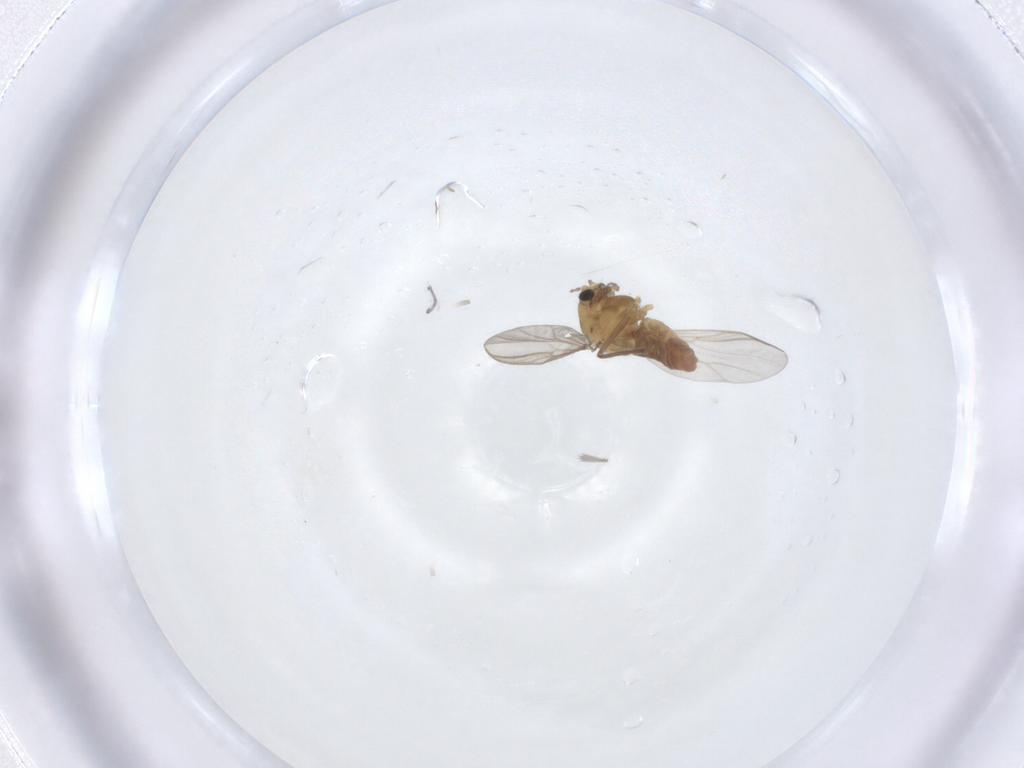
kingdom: Animalia
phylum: Arthropoda
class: Insecta
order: Diptera
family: Chironomidae
